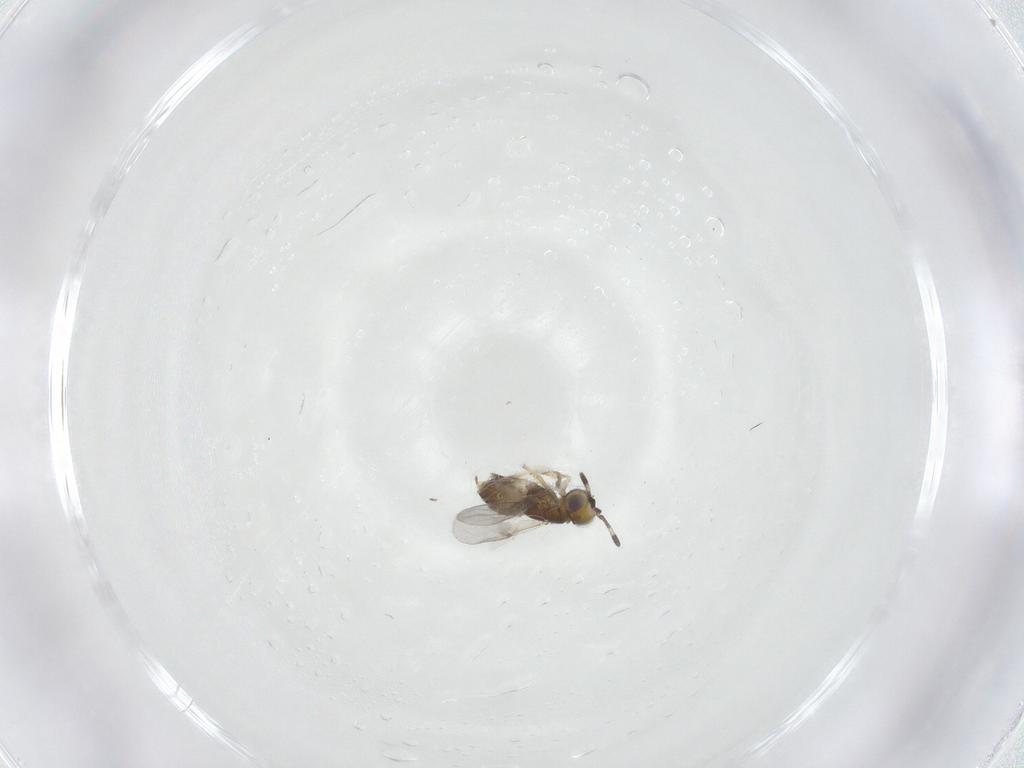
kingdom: Animalia
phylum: Arthropoda
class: Insecta
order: Hymenoptera
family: Encyrtidae
